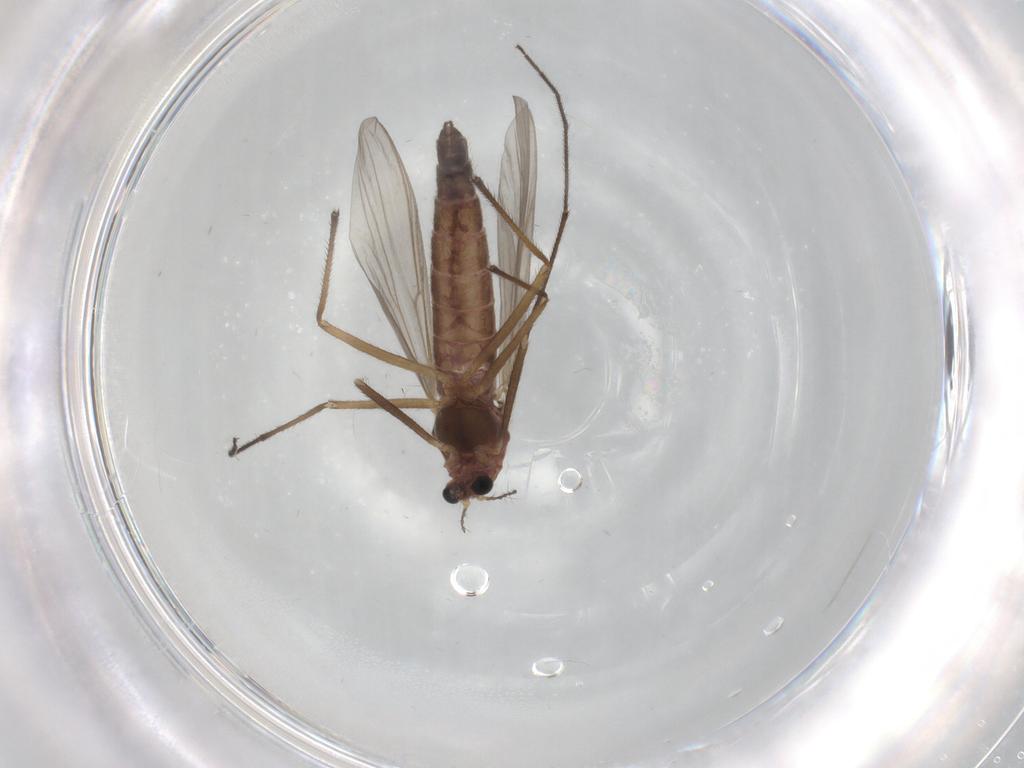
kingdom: Animalia
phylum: Arthropoda
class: Insecta
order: Diptera
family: Chironomidae
